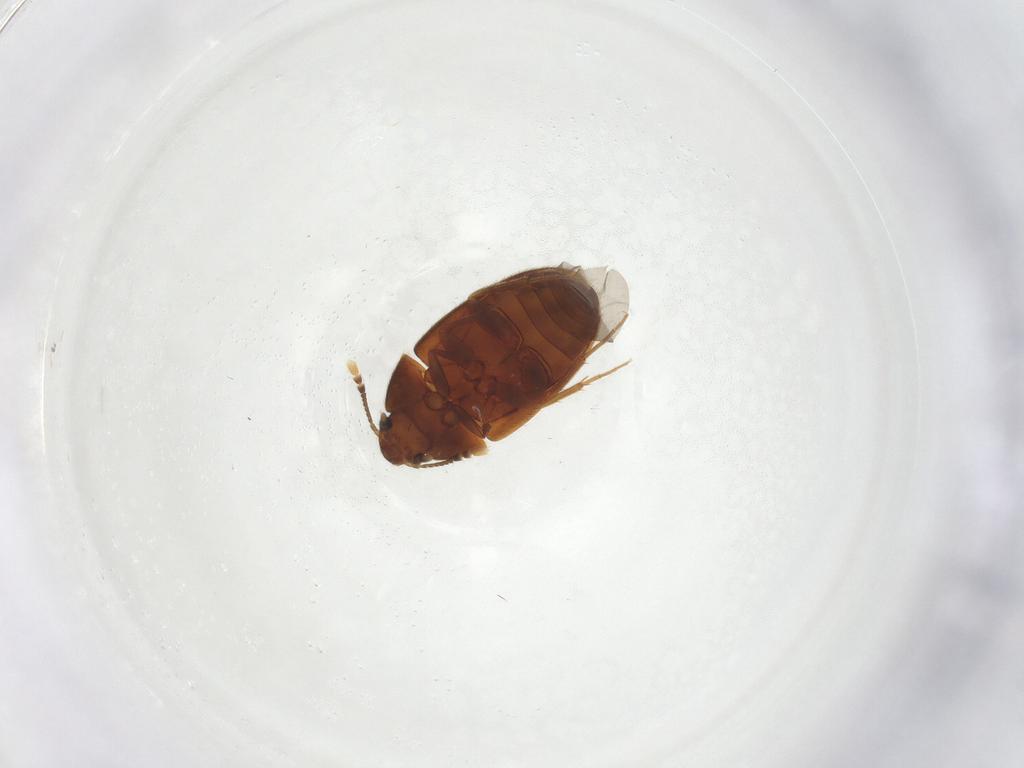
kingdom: Animalia
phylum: Arthropoda
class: Insecta
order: Coleoptera
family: Mycetophagidae
